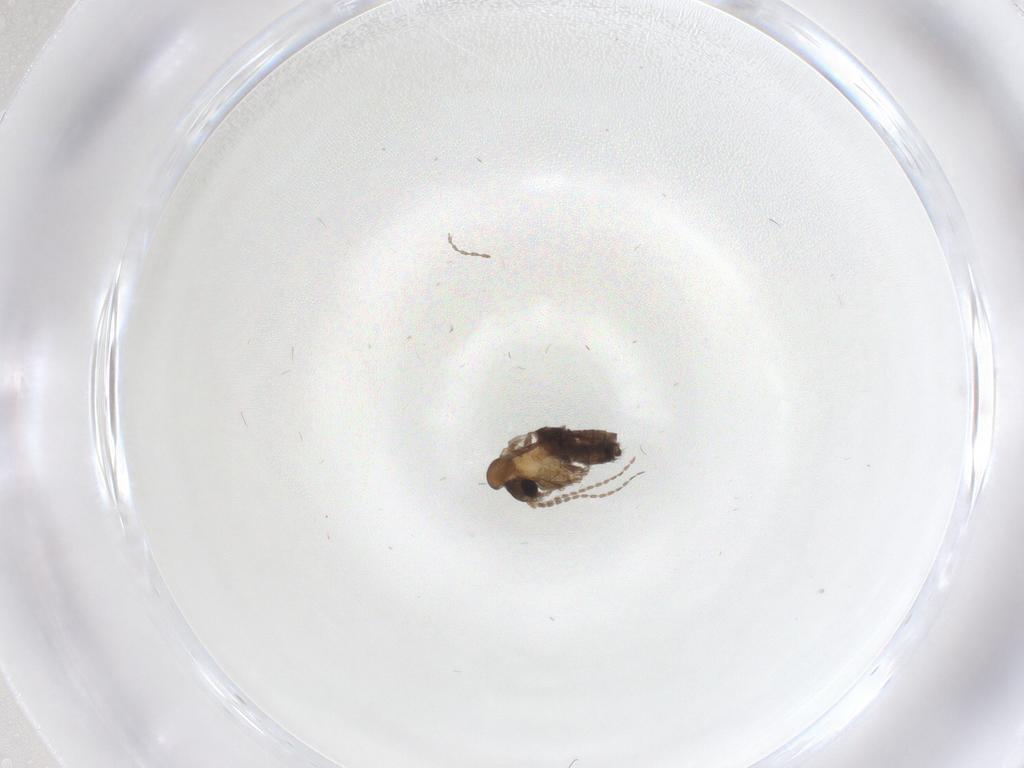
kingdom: Animalia
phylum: Arthropoda
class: Insecta
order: Diptera
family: Psychodidae
